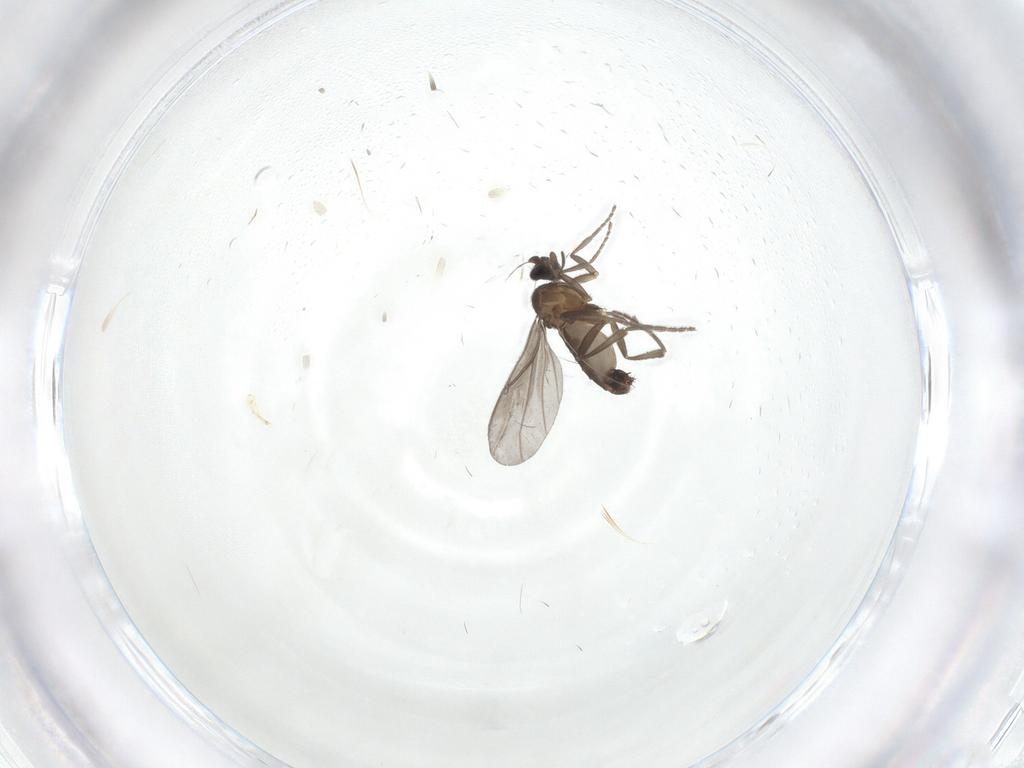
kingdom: Animalia
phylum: Arthropoda
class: Insecta
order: Diptera
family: Phoridae
